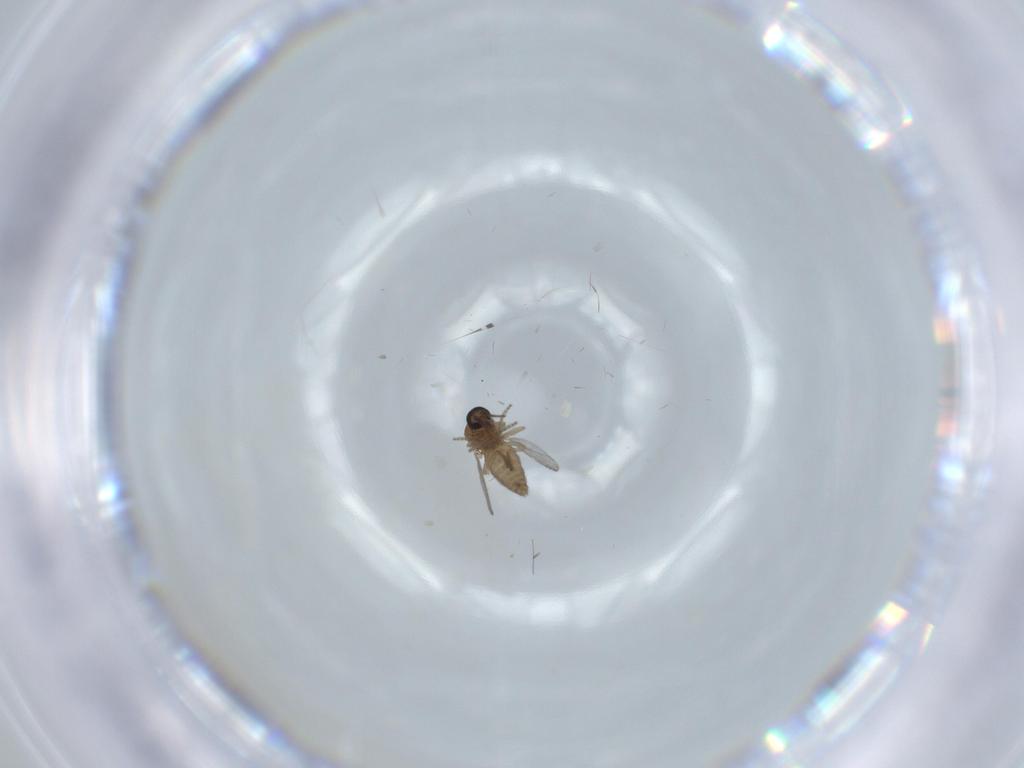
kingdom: Animalia
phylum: Arthropoda
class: Insecta
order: Diptera
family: Ceratopogonidae
